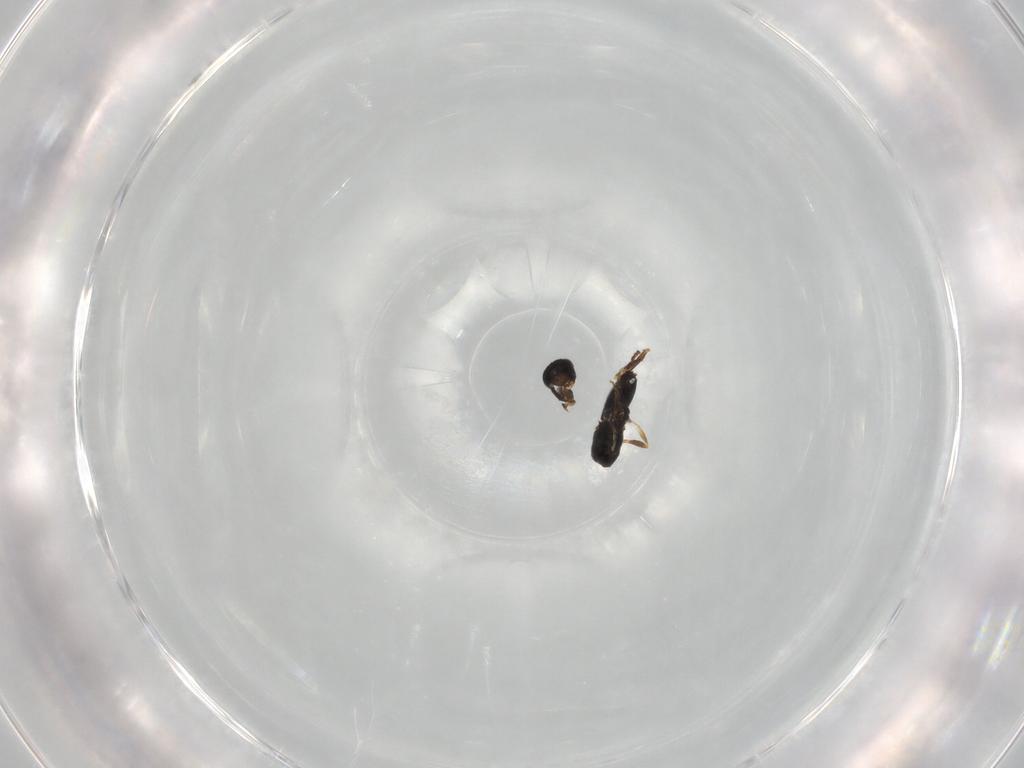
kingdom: Animalia
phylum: Arthropoda
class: Insecta
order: Hymenoptera
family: Platygastridae
